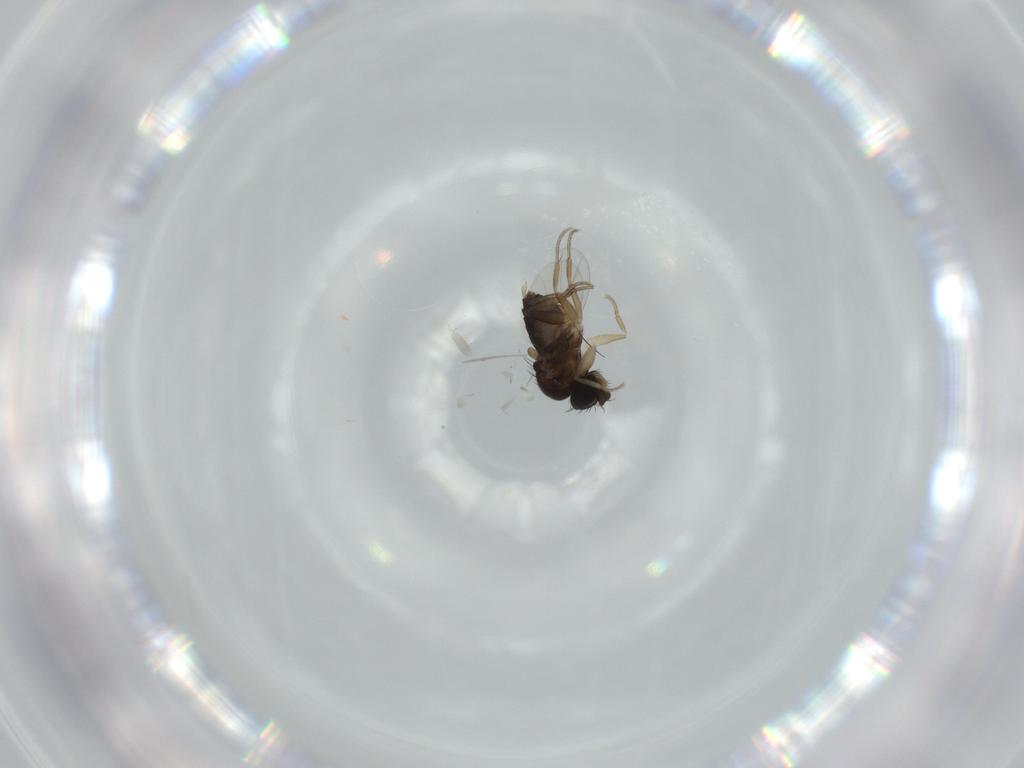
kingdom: Animalia
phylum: Arthropoda
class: Insecta
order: Diptera
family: Phoridae
